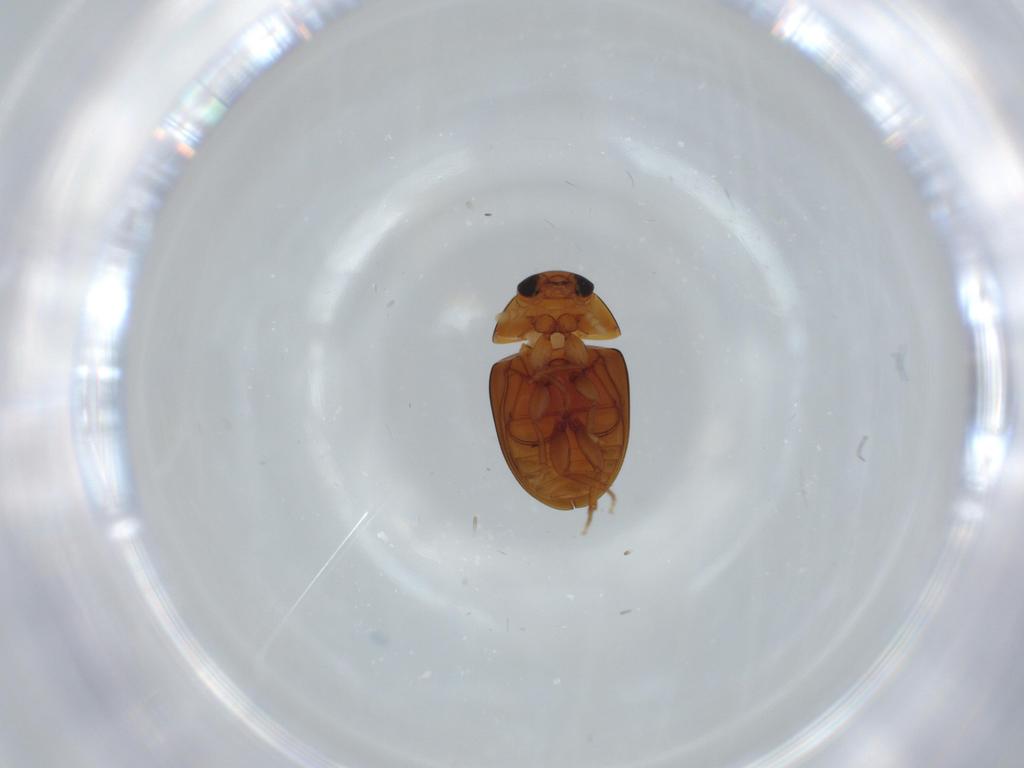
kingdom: Animalia
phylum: Arthropoda
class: Insecta
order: Coleoptera
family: Phalacridae
